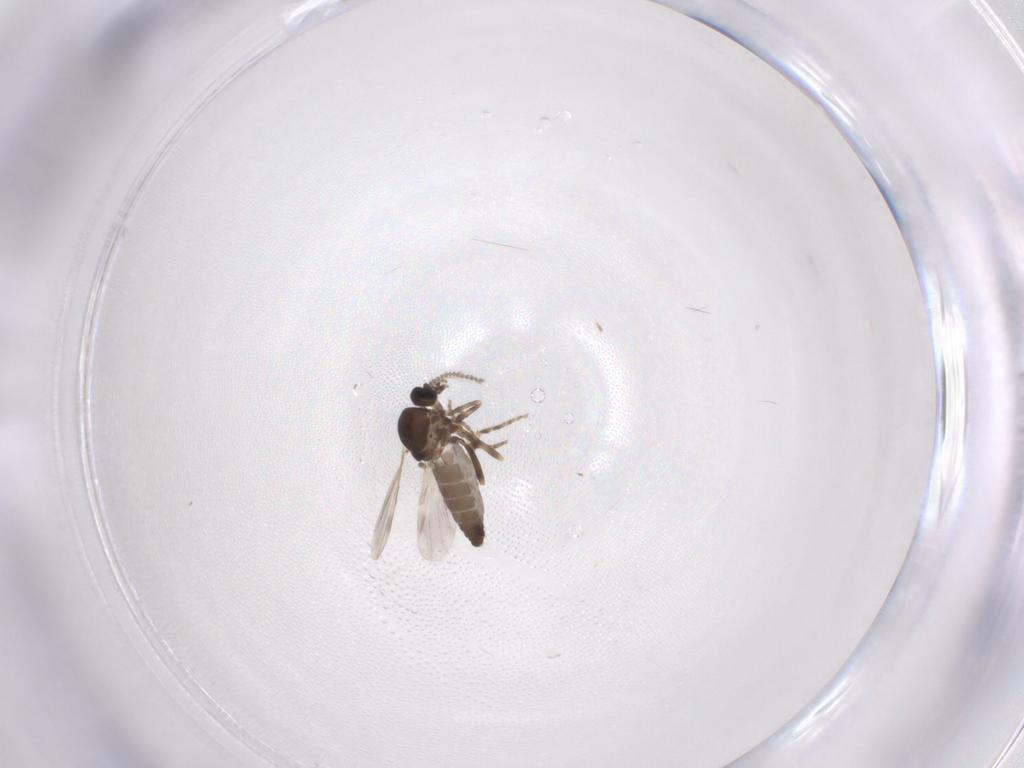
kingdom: Animalia
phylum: Arthropoda
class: Insecta
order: Diptera
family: Ceratopogonidae
